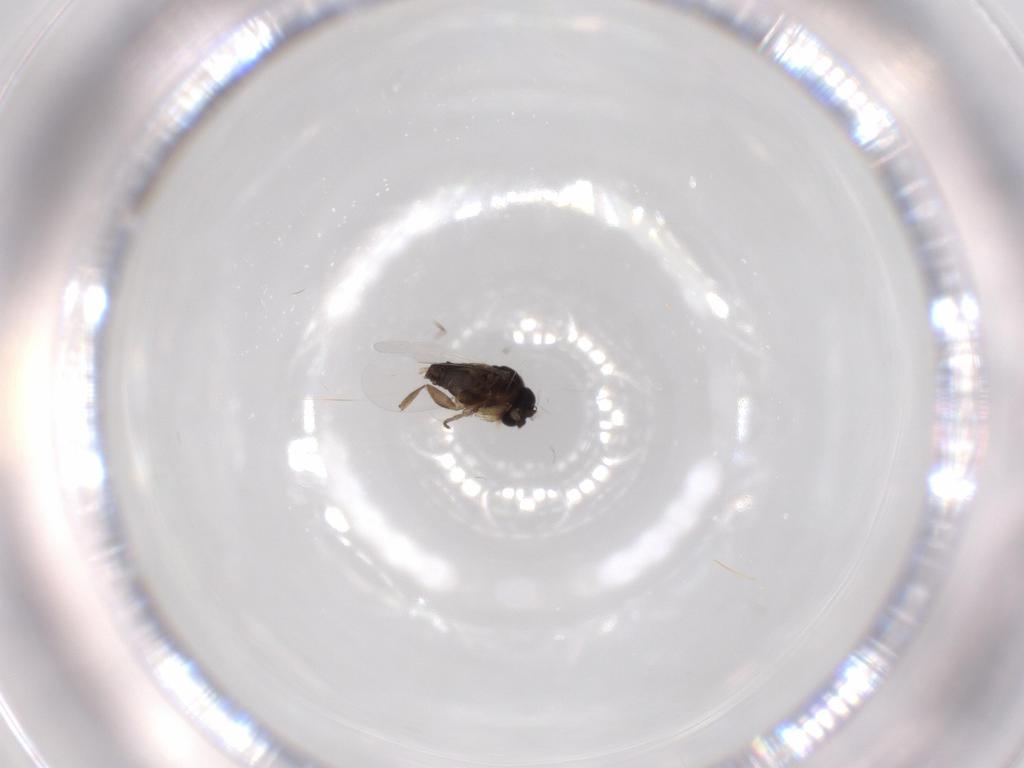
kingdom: Animalia
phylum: Arthropoda
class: Insecta
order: Diptera
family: Phoridae
